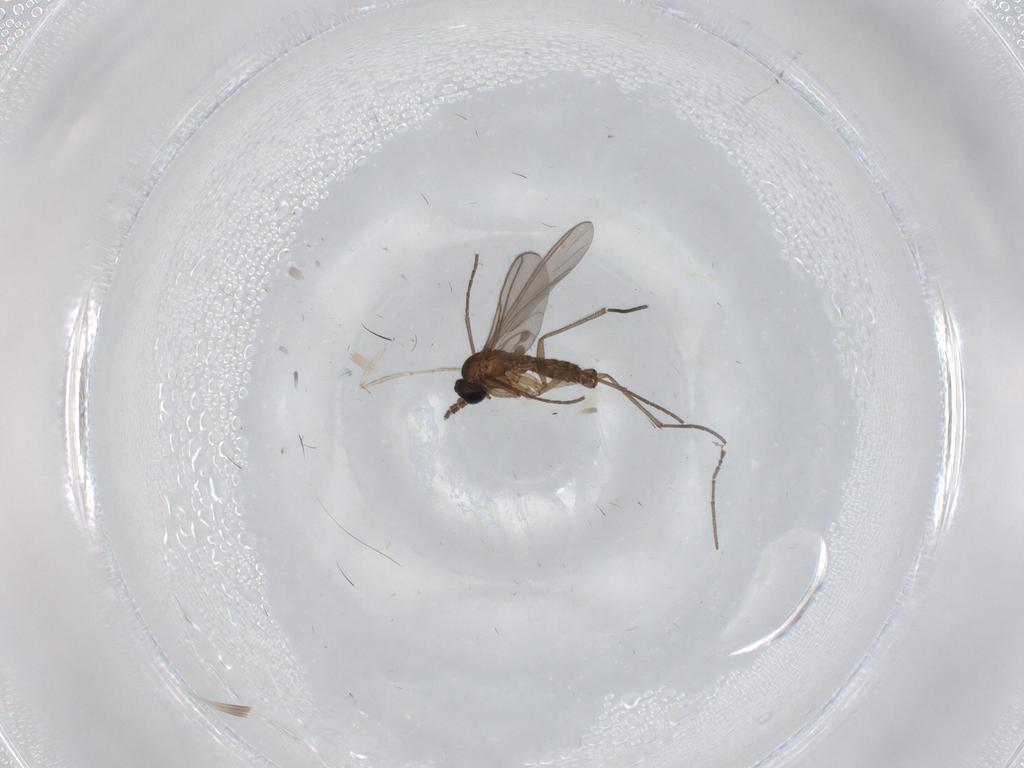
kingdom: Animalia
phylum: Arthropoda
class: Insecta
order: Diptera
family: Sciaridae
